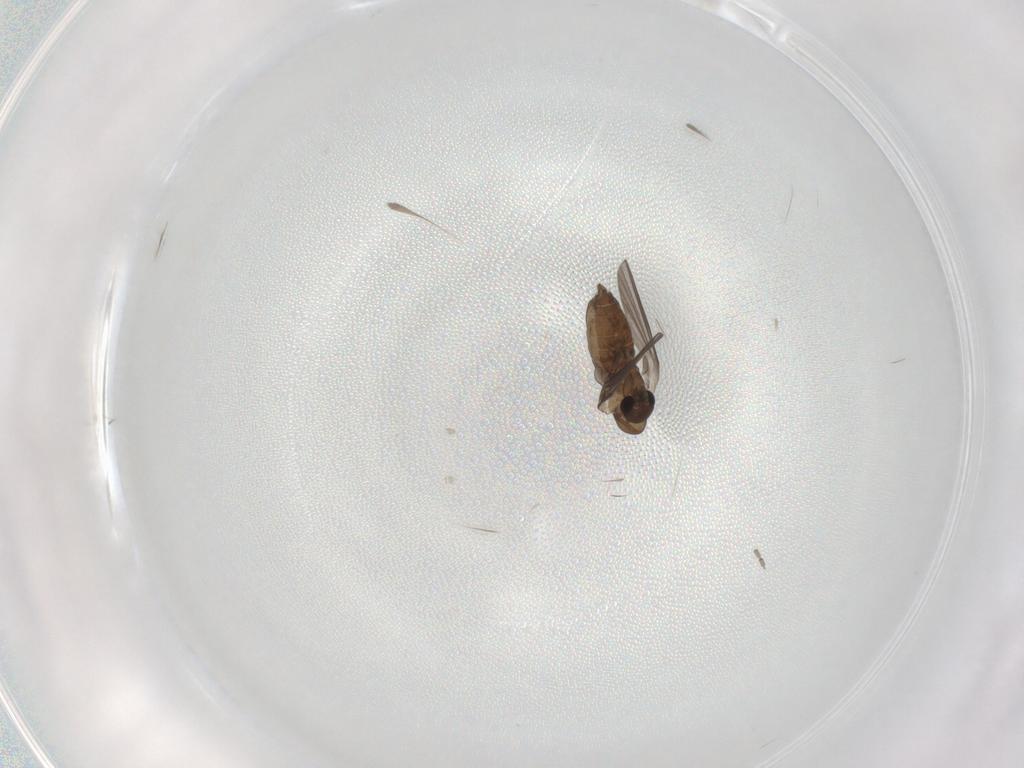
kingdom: Animalia
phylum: Arthropoda
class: Insecta
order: Diptera
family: Cecidomyiidae
